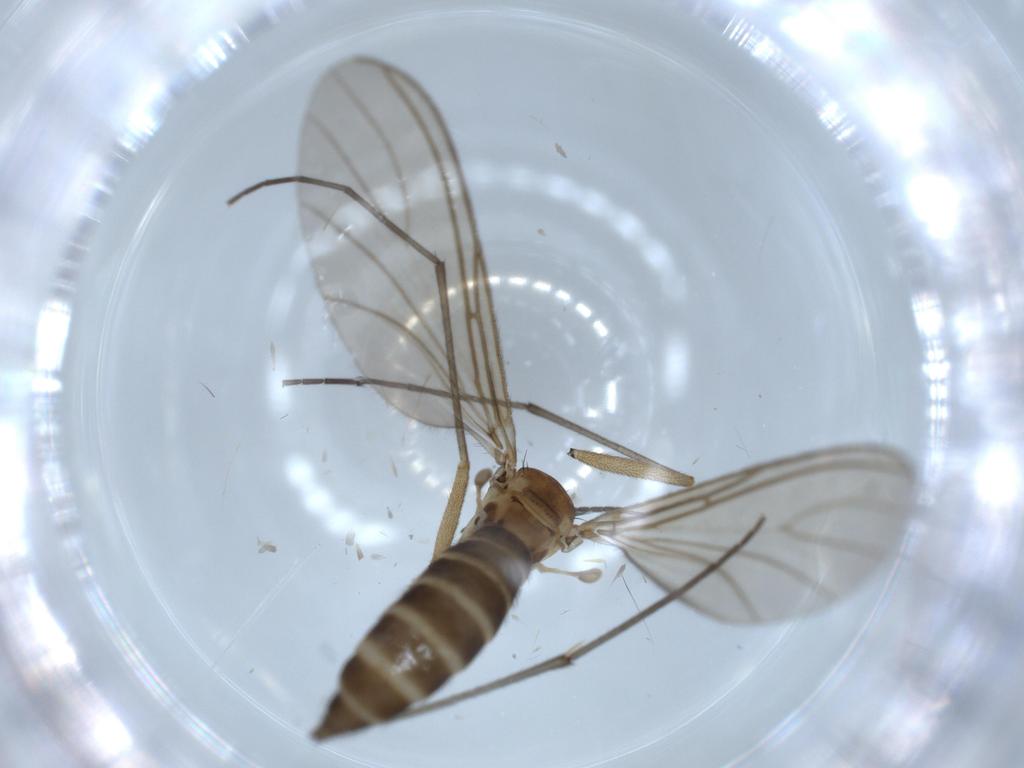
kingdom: Animalia
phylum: Arthropoda
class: Insecta
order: Diptera
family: Sciaridae
